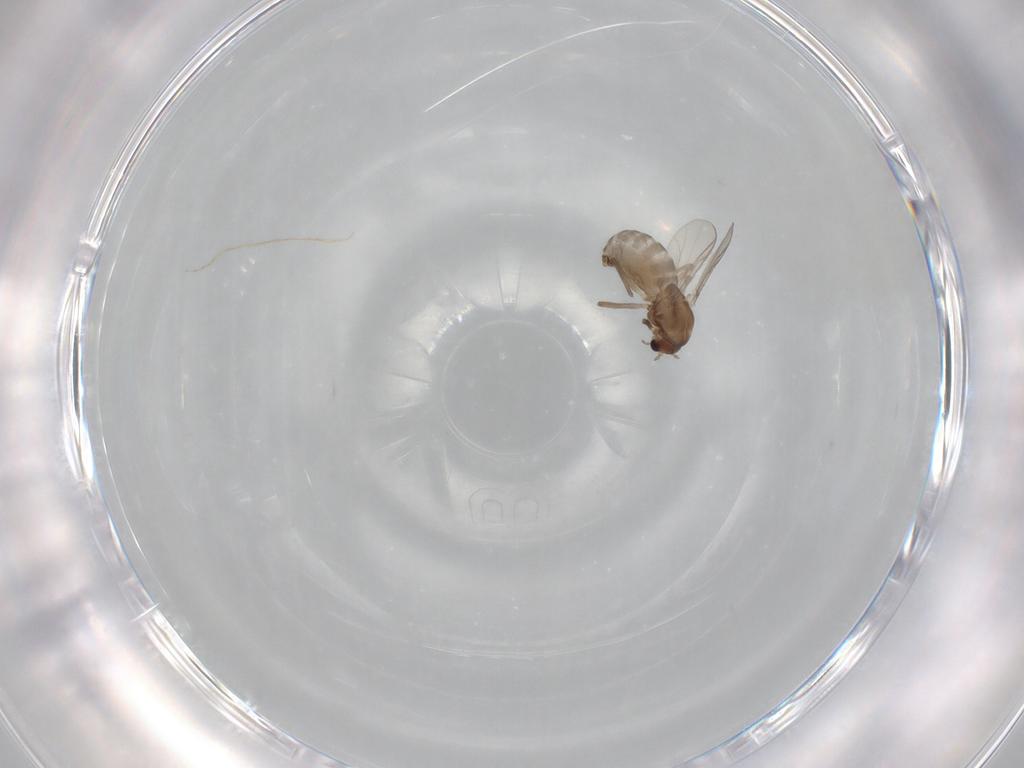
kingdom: Animalia
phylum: Arthropoda
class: Insecta
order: Diptera
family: Chironomidae
